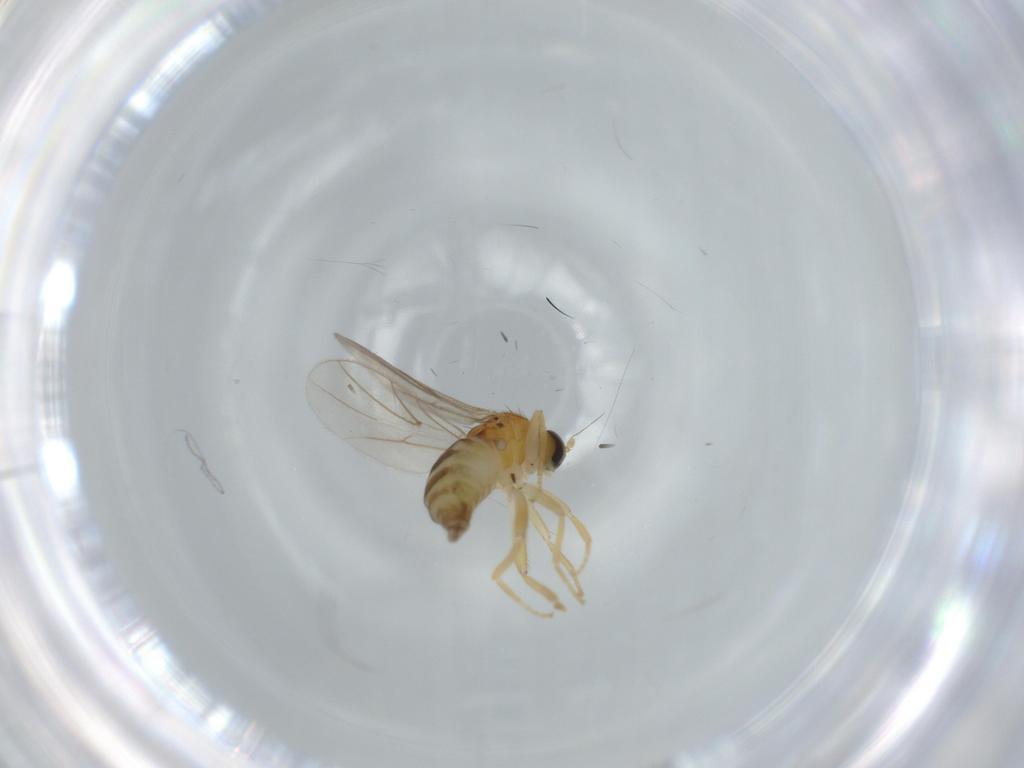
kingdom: Animalia
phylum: Arthropoda
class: Insecta
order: Diptera
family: Hybotidae
